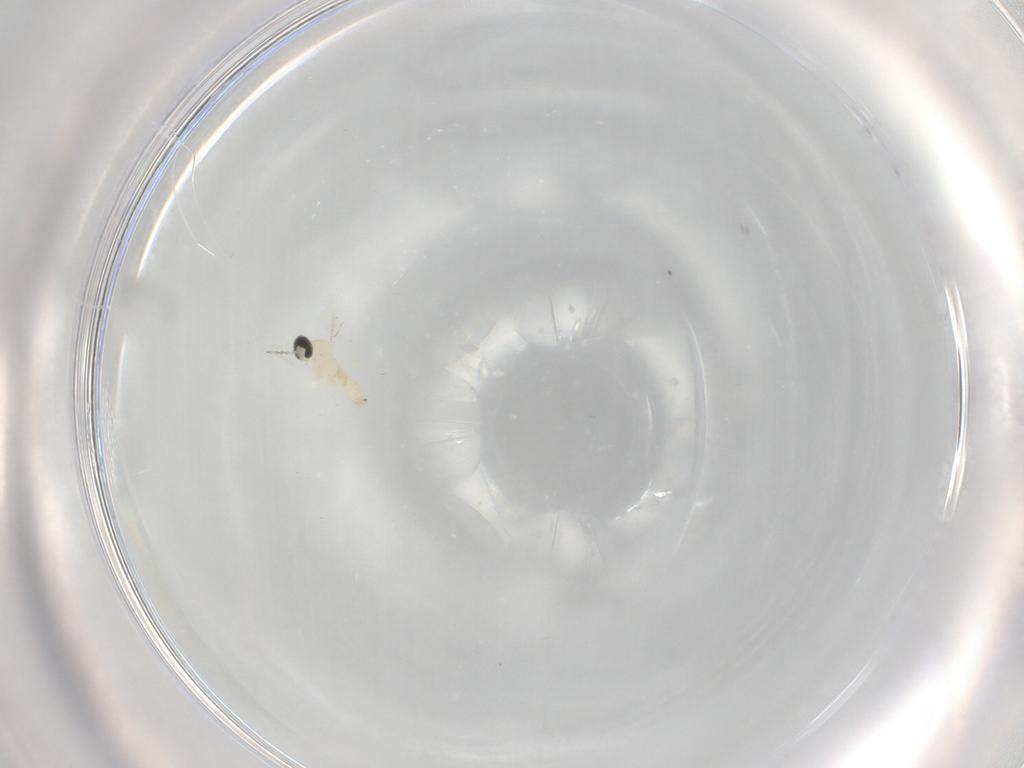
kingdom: Animalia
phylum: Arthropoda
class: Insecta
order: Diptera
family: Cecidomyiidae
